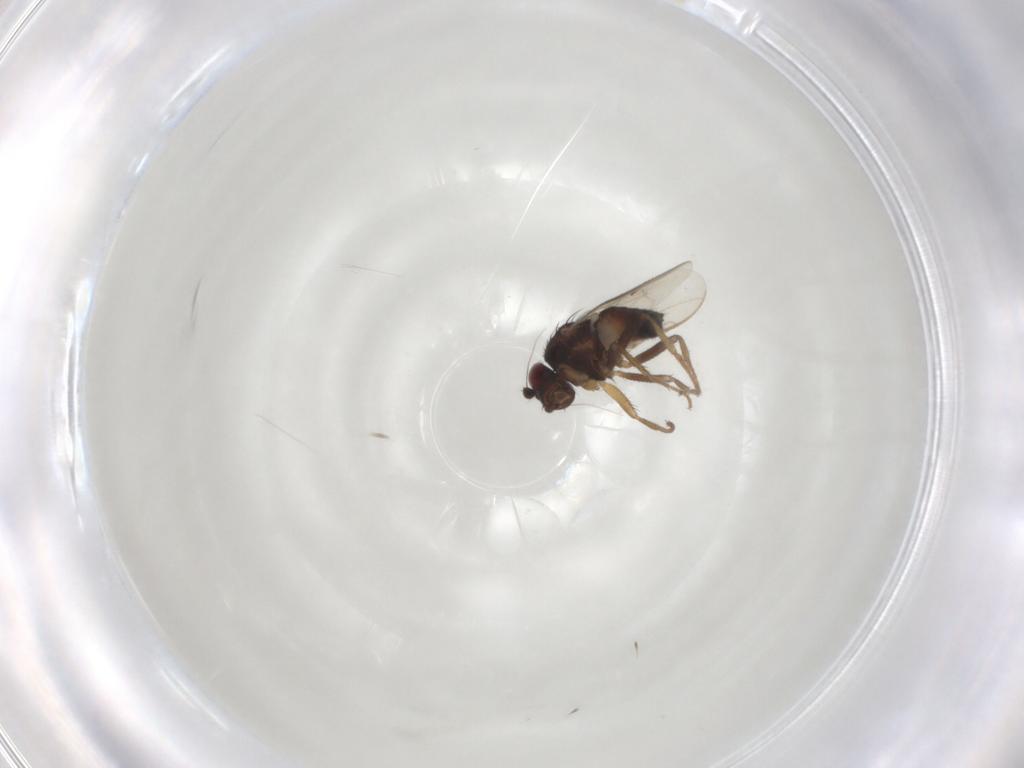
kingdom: Animalia
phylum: Arthropoda
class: Insecta
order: Diptera
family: Sphaeroceridae
